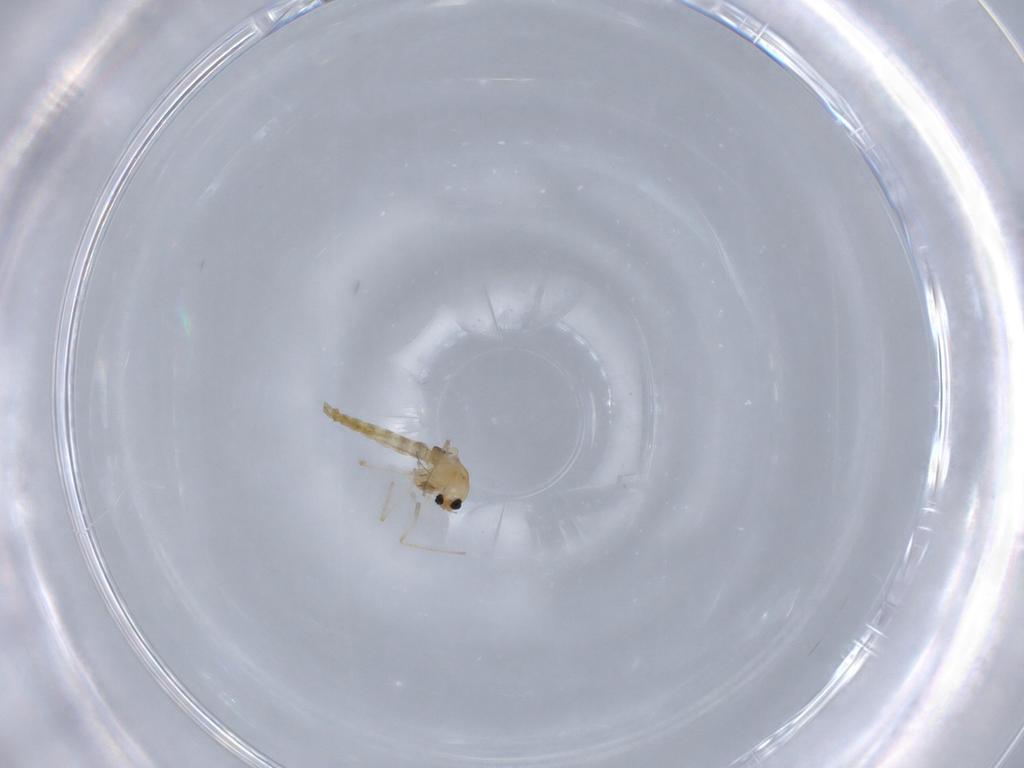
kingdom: Animalia
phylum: Arthropoda
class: Insecta
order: Diptera
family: Chironomidae
